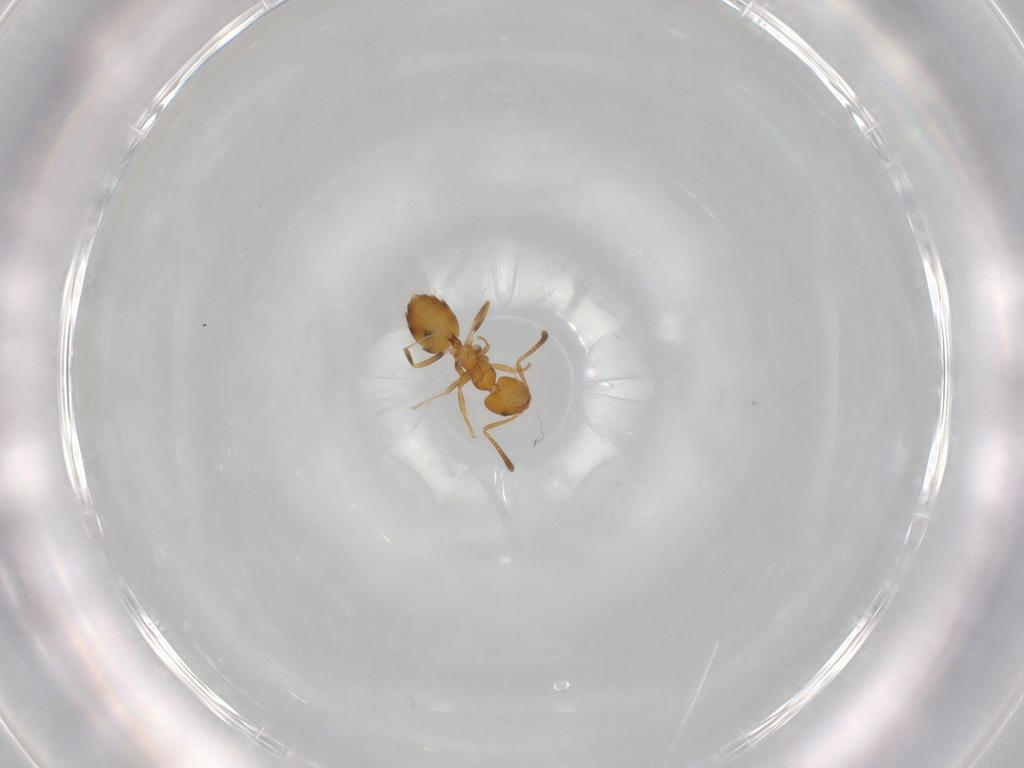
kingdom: Animalia
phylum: Arthropoda
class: Insecta
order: Hymenoptera
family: Formicidae
